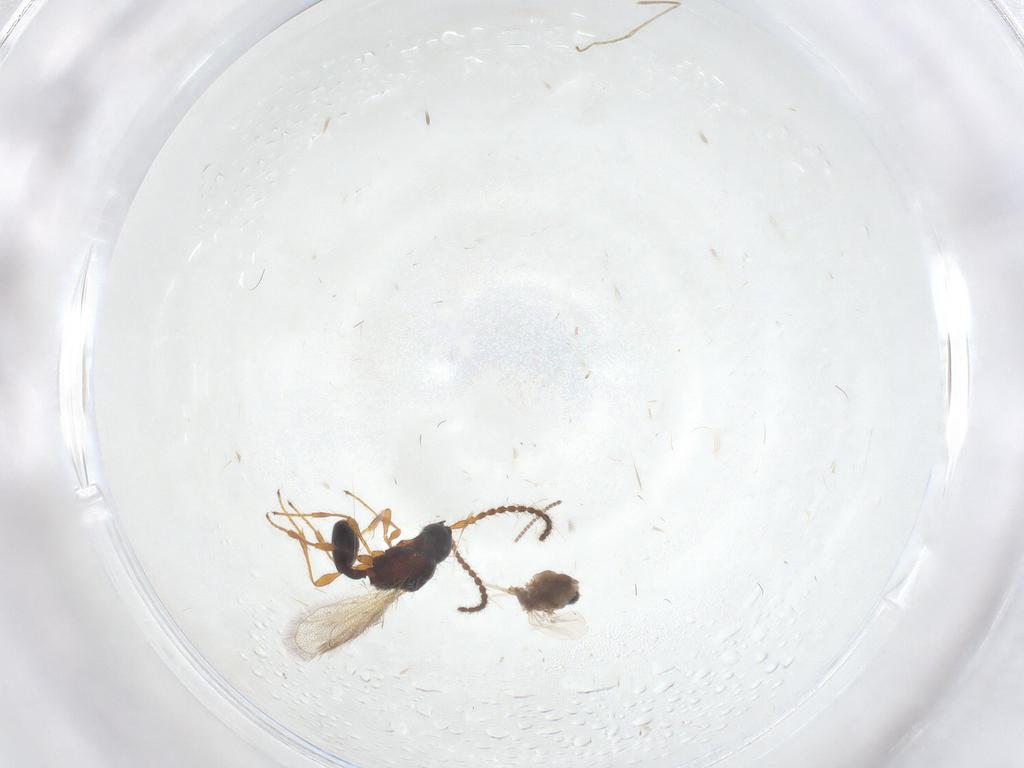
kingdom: Animalia
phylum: Arthropoda
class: Insecta
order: Diptera
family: Cecidomyiidae
